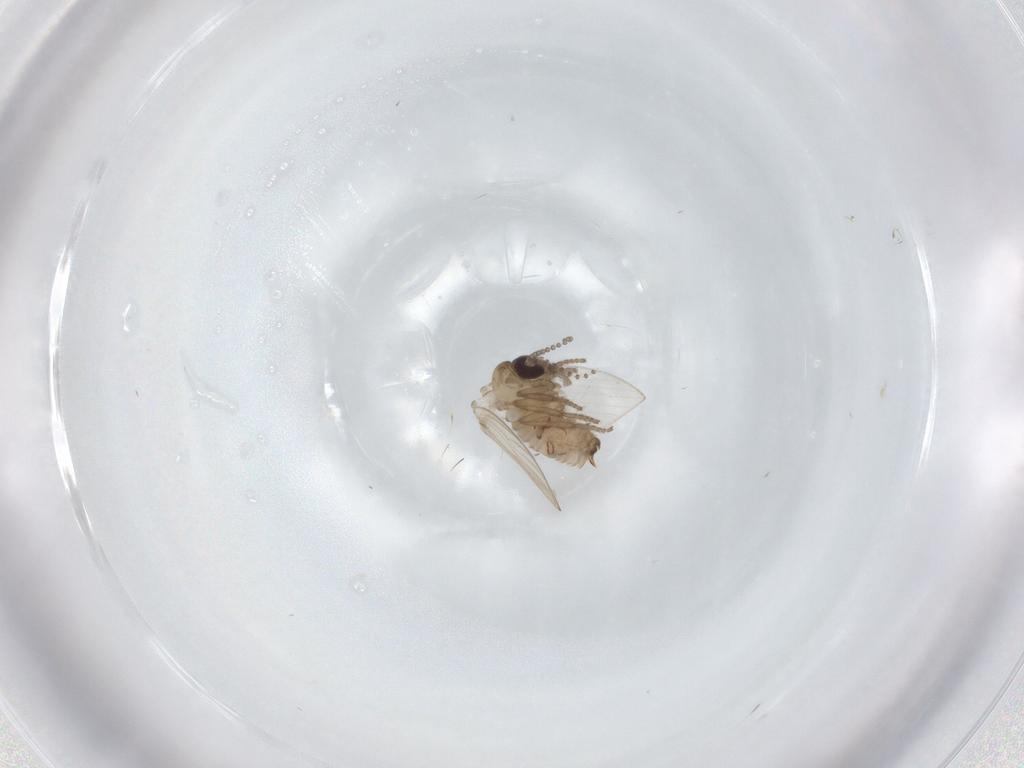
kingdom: Animalia
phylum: Arthropoda
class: Insecta
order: Diptera
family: Psychodidae
